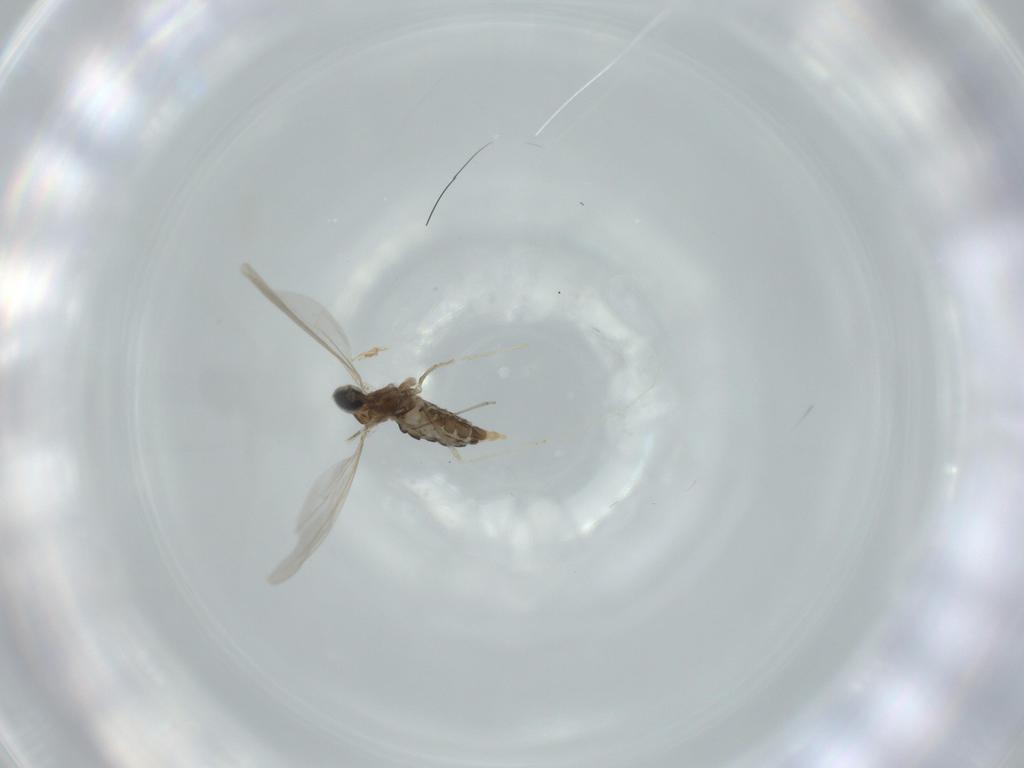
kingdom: Animalia
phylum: Arthropoda
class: Insecta
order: Diptera
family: Cecidomyiidae
